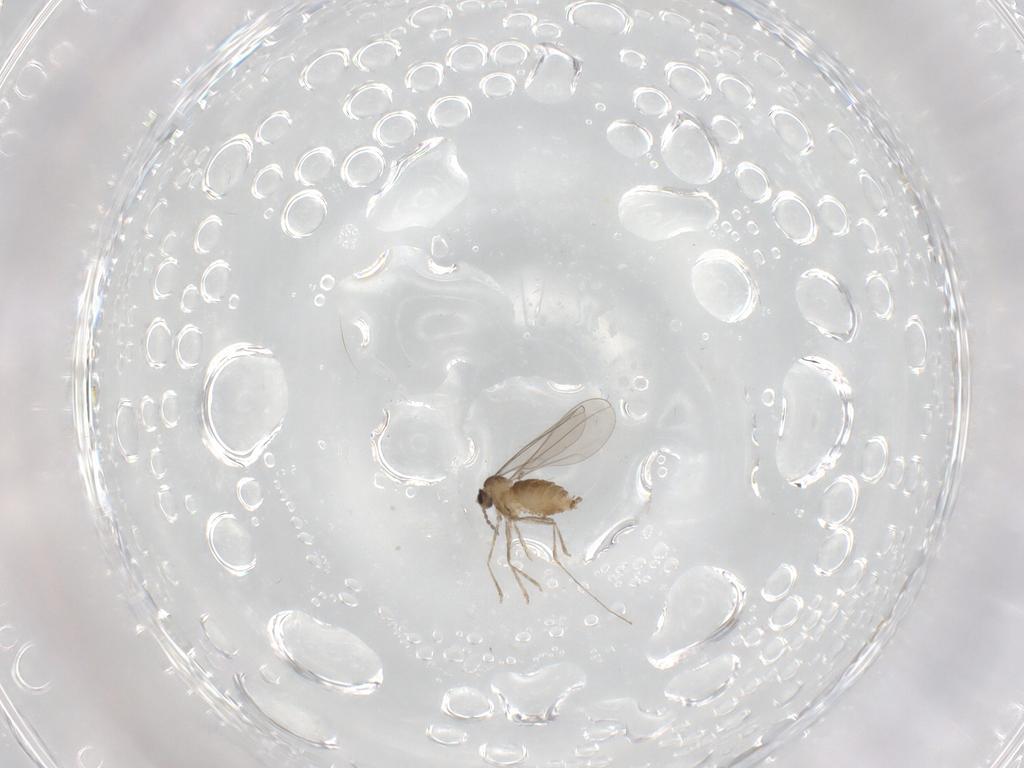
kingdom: Animalia
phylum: Arthropoda
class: Insecta
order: Diptera
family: Cecidomyiidae
